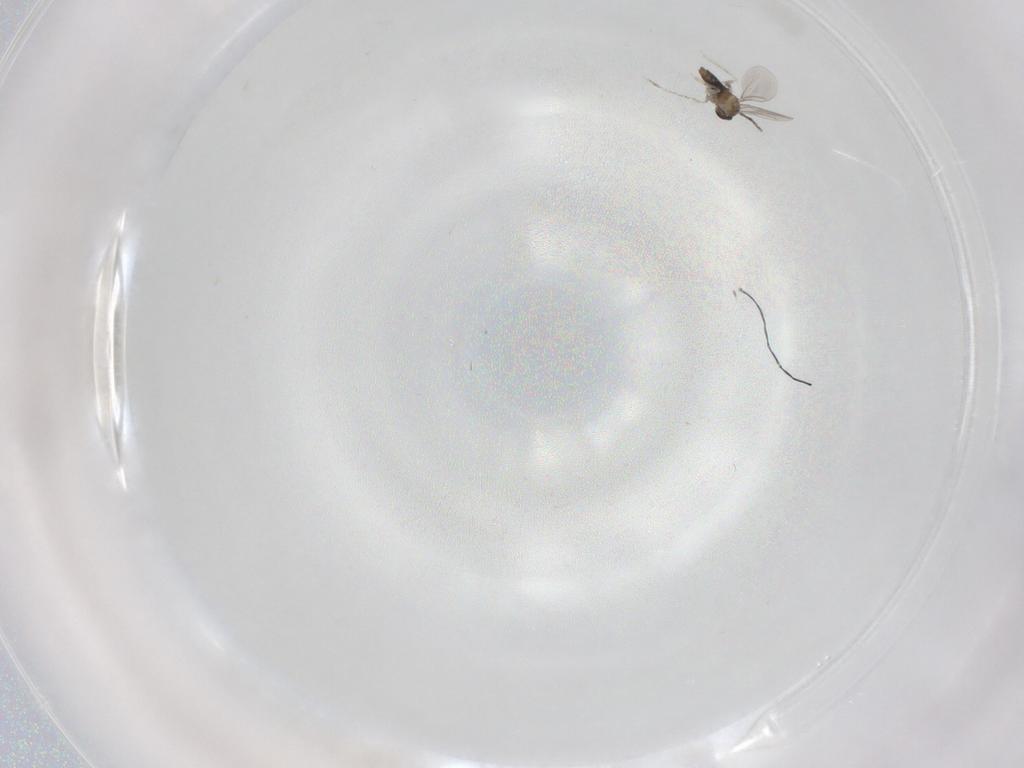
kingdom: Animalia
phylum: Arthropoda
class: Insecta
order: Diptera
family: Cecidomyiidae
